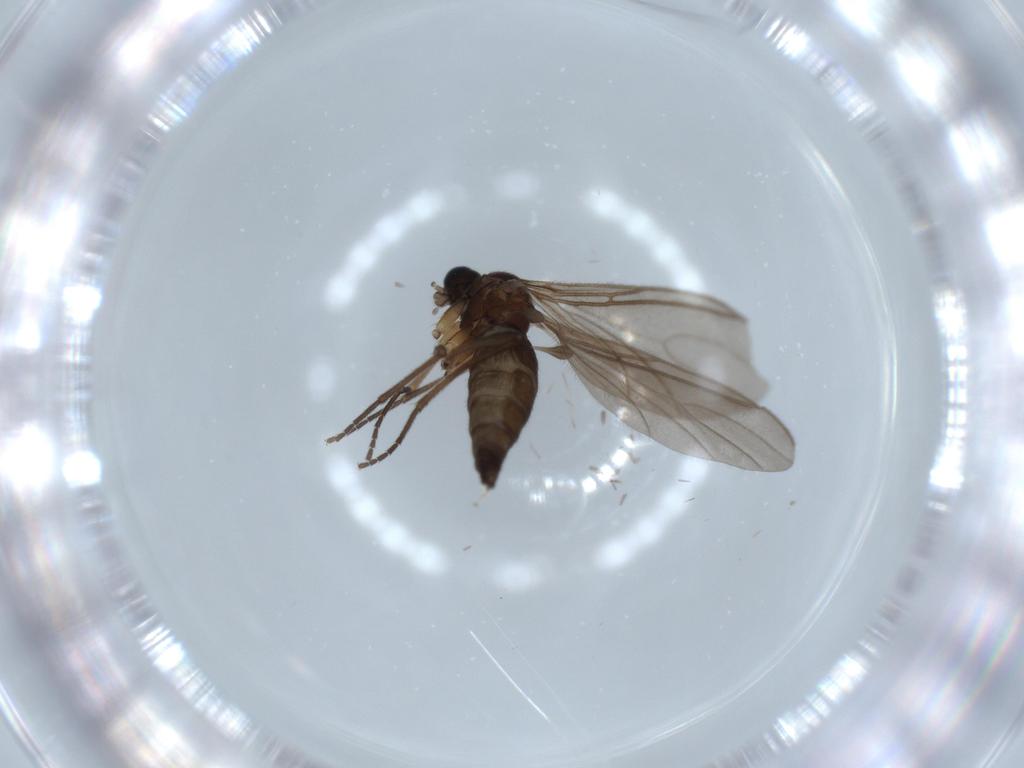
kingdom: Animalia
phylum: Arthropoda
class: Insecta
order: Diptera
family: Sciaridae
